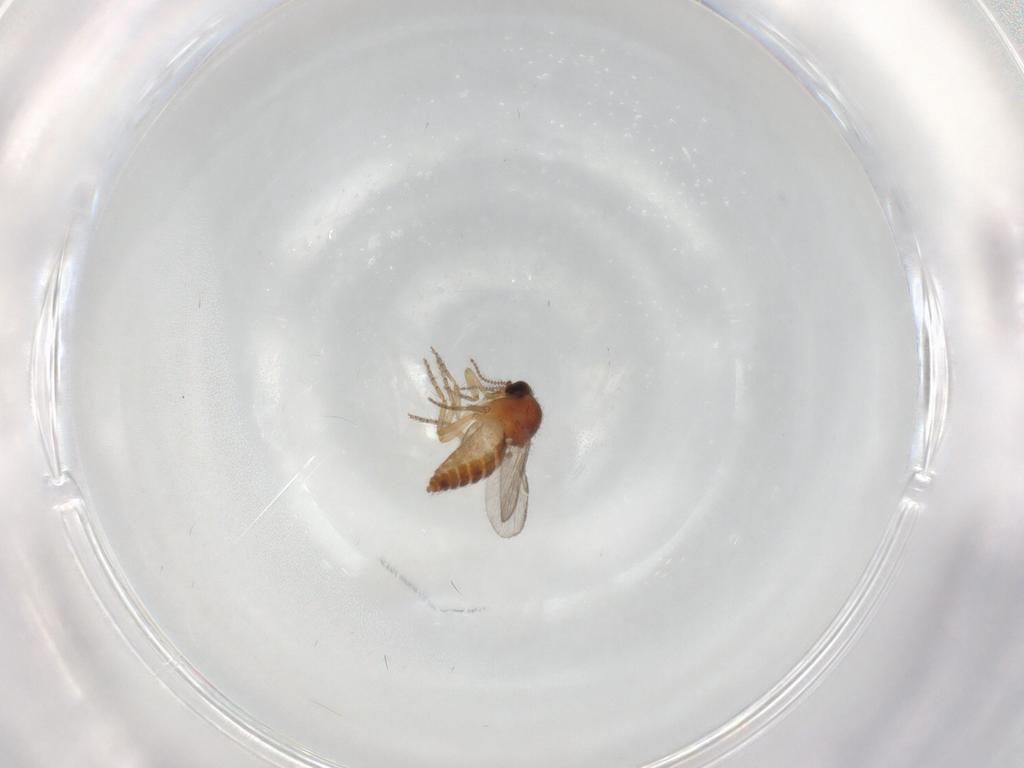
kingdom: Animalia
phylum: Arthropoda
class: Insecta
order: Diptera
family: Ceratopogonidae
